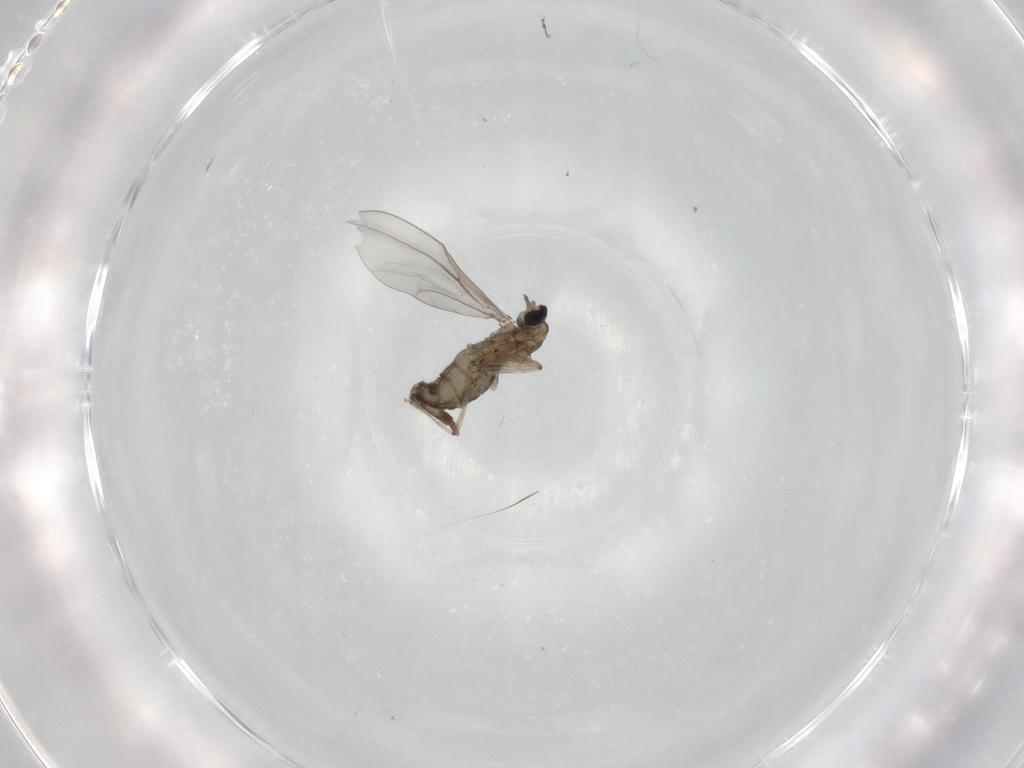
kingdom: Animalia
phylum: Arthropoda
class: Insecta
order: Diptera
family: Cecidomyiidae
